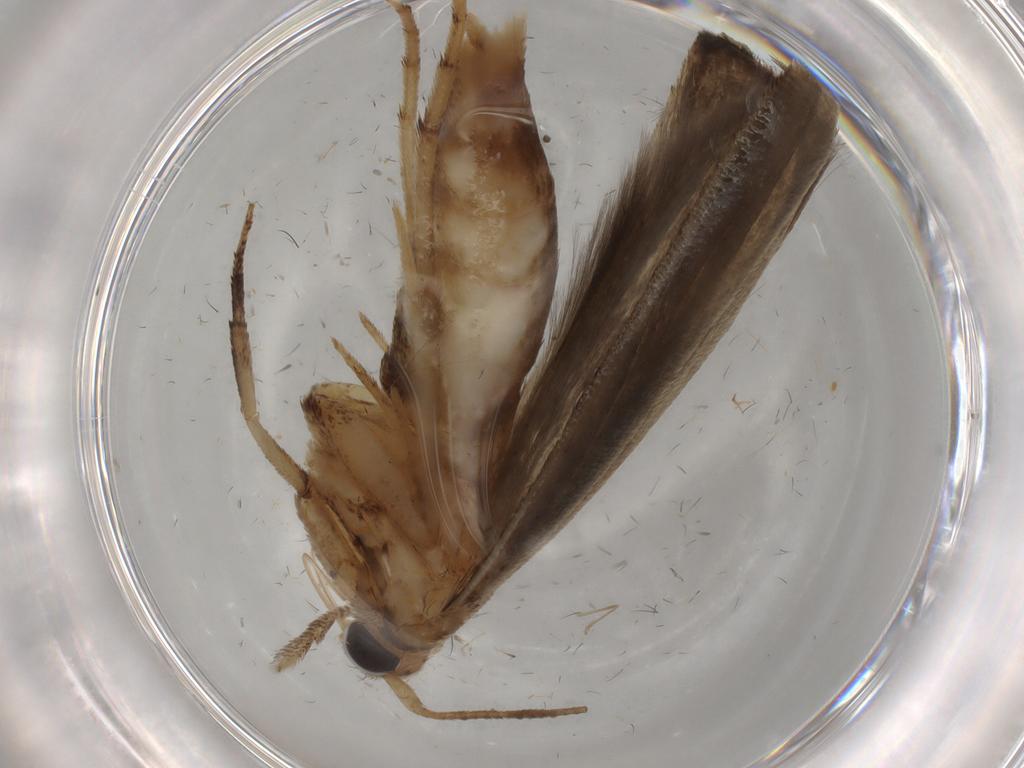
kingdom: Animalia
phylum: Arthropoda
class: Insecta
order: Lepidoptera
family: Yponomeutidae
